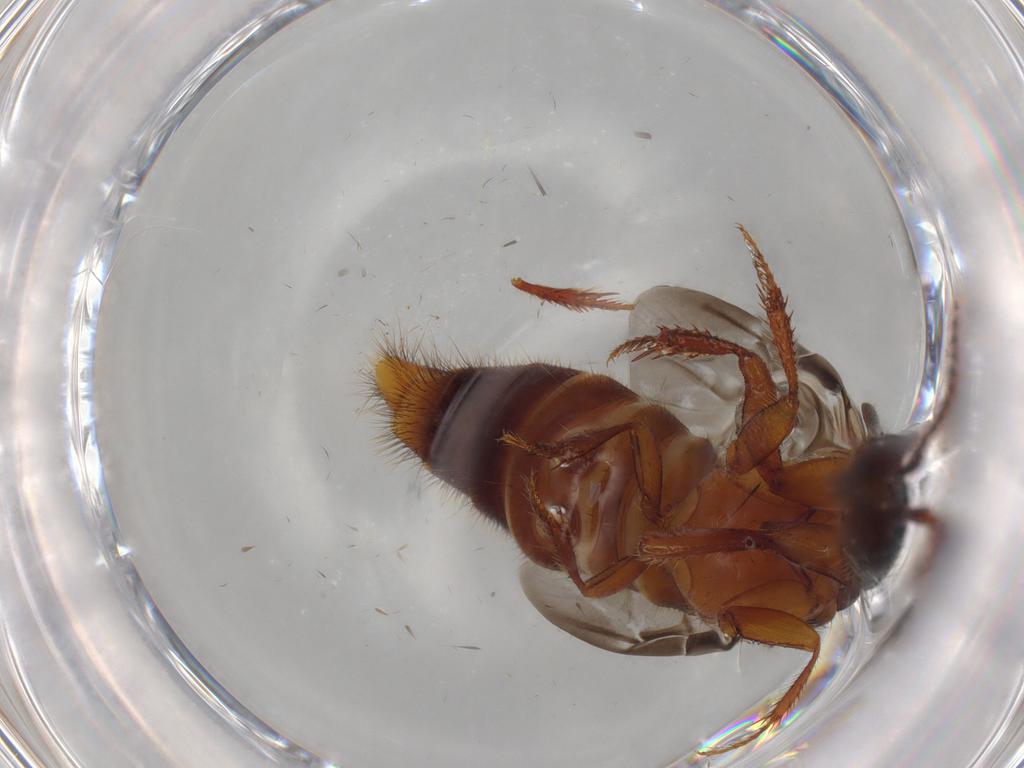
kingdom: Animalia
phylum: Arthropoda
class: Insecta
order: Coleoptera
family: Staphylinidae
